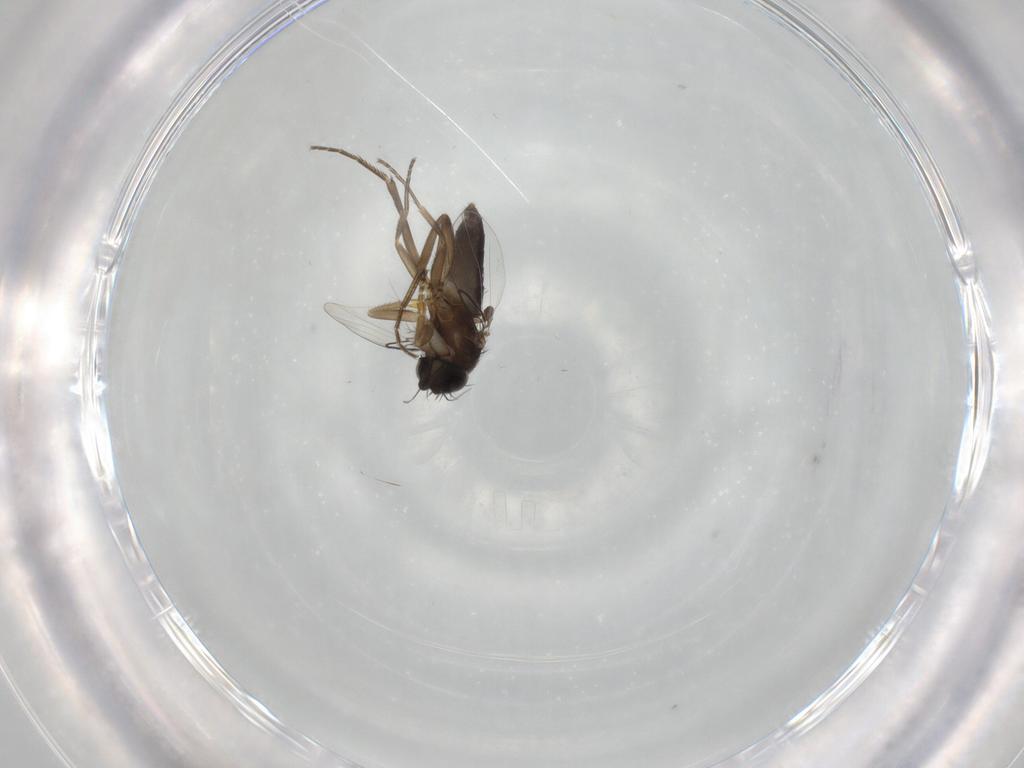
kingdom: Animalia
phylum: Arthropoda
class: Insecta
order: Diptera
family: Phoridae
